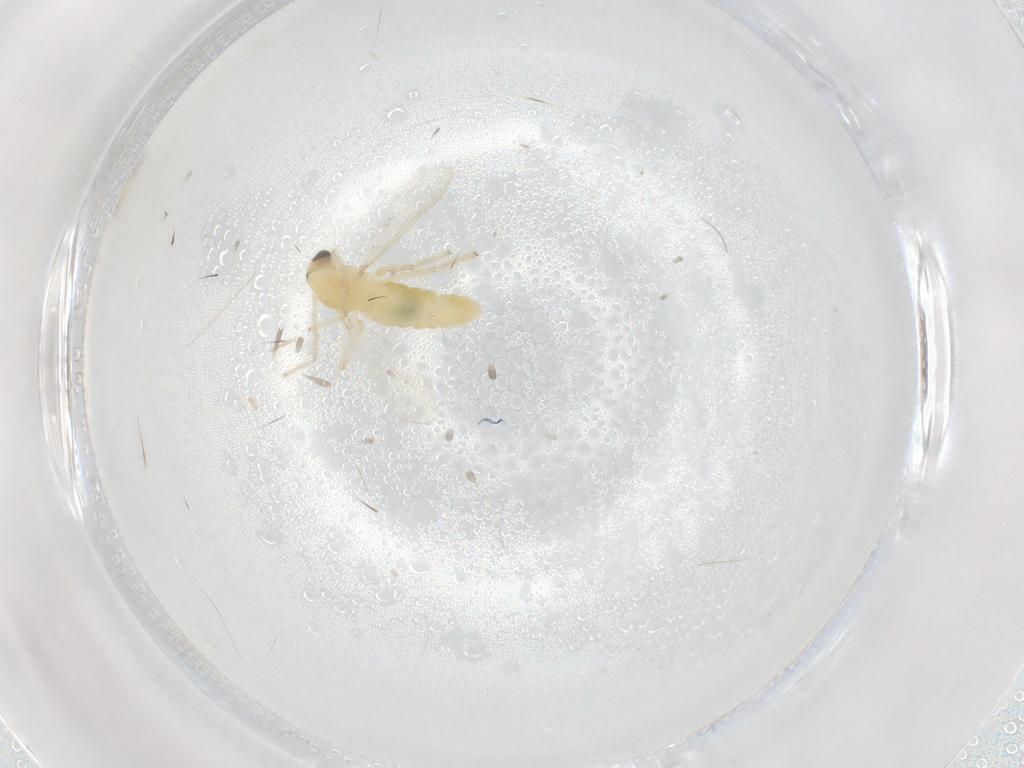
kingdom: Animalia
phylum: Arthropoda
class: Insecta
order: Diptera
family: Chironomidae
